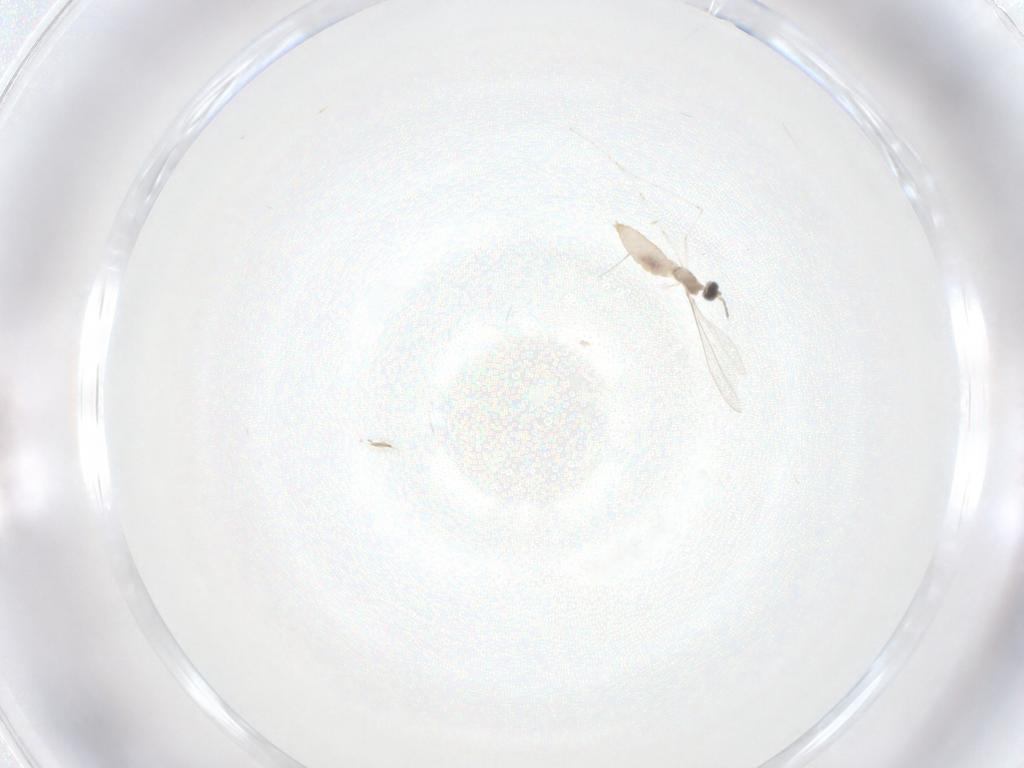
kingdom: Animalia
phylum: Arthropoda
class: Insecta
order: Diptera
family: Cecidomyiidae
